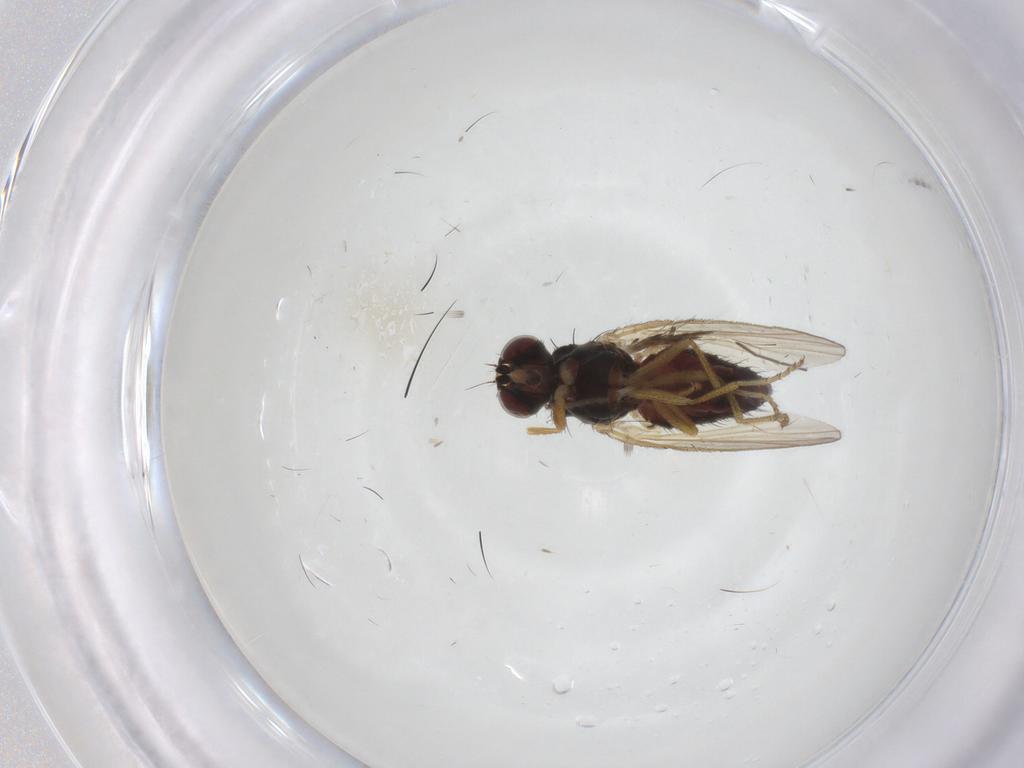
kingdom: Animalia
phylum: Arthropoda
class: Insecta
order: Diptera
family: Heleomyzidae
